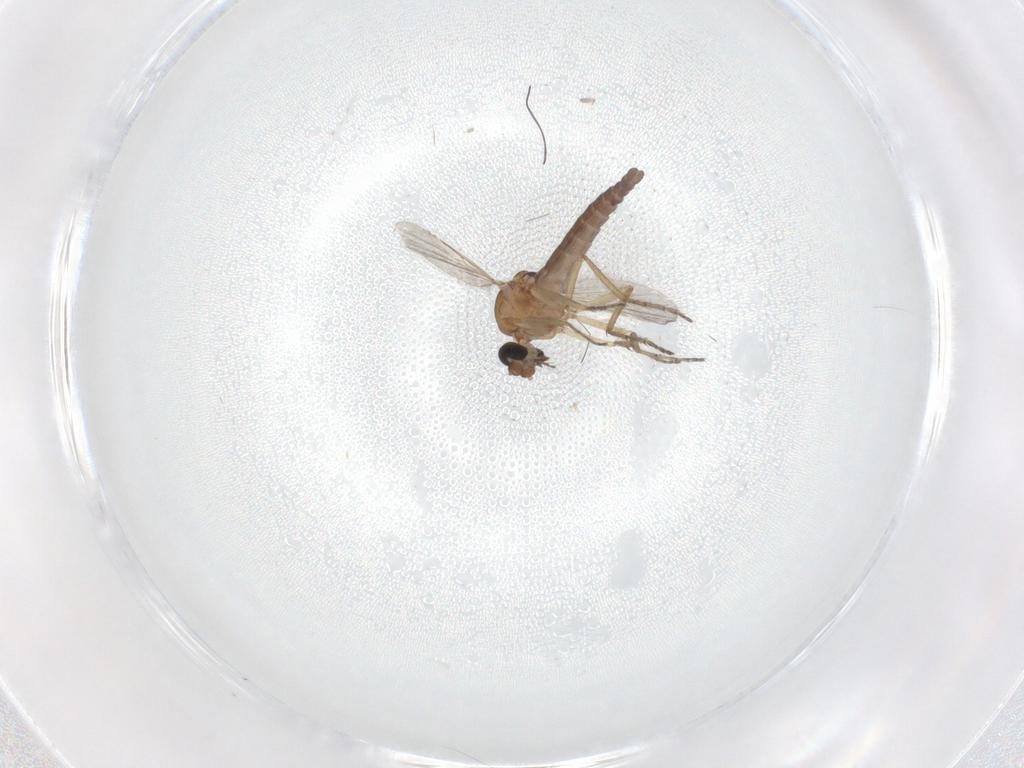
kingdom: Animalia
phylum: Arthropoda
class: Insecta
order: Diptera
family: Ceratopogonidae
